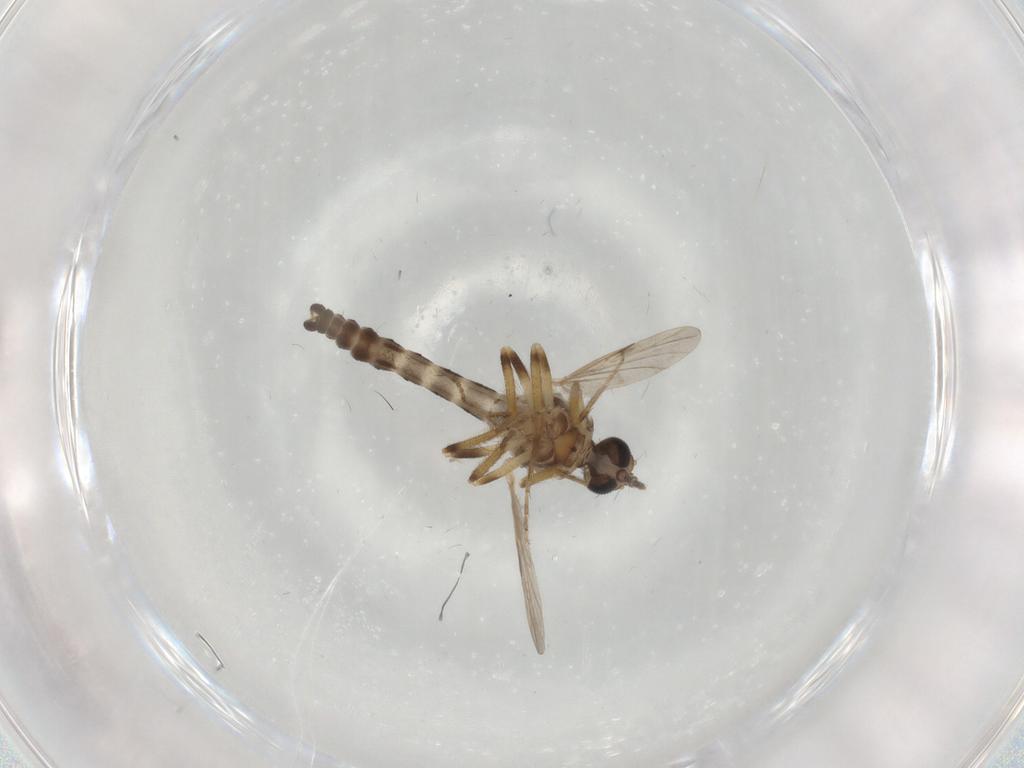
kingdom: Animalia
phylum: Arthropoda
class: Insecta
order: Diptera
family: Ceratopogonidae
